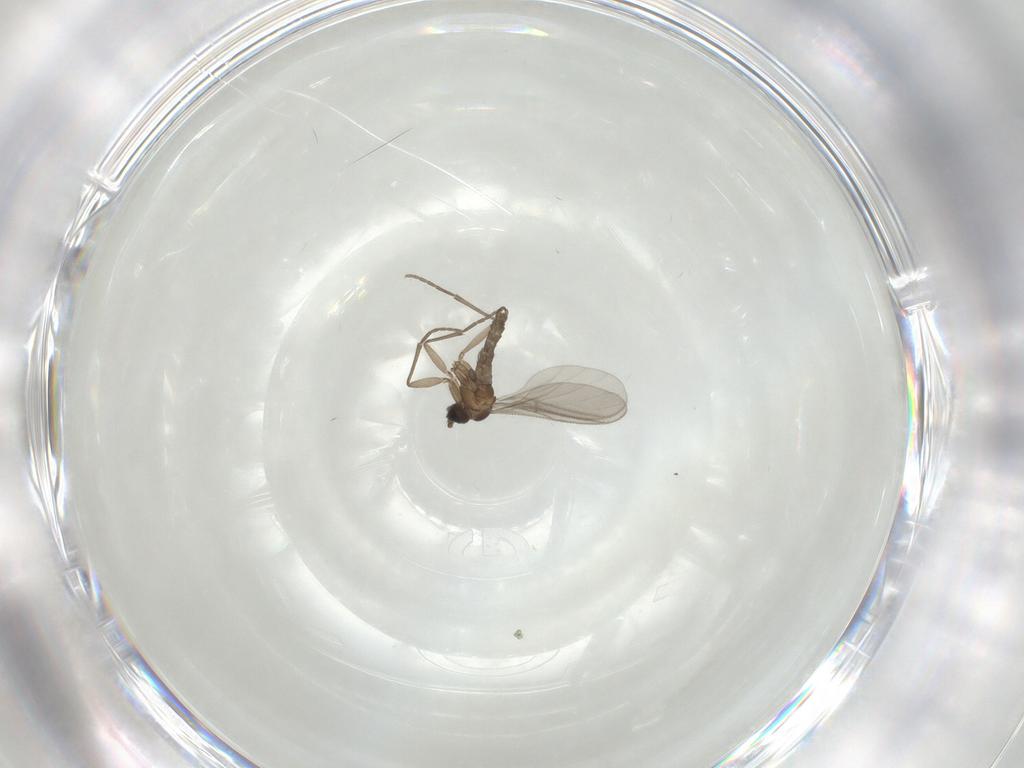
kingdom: Animalia
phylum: Arthropoda
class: Insecta
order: Diptera
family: Sciaridae
